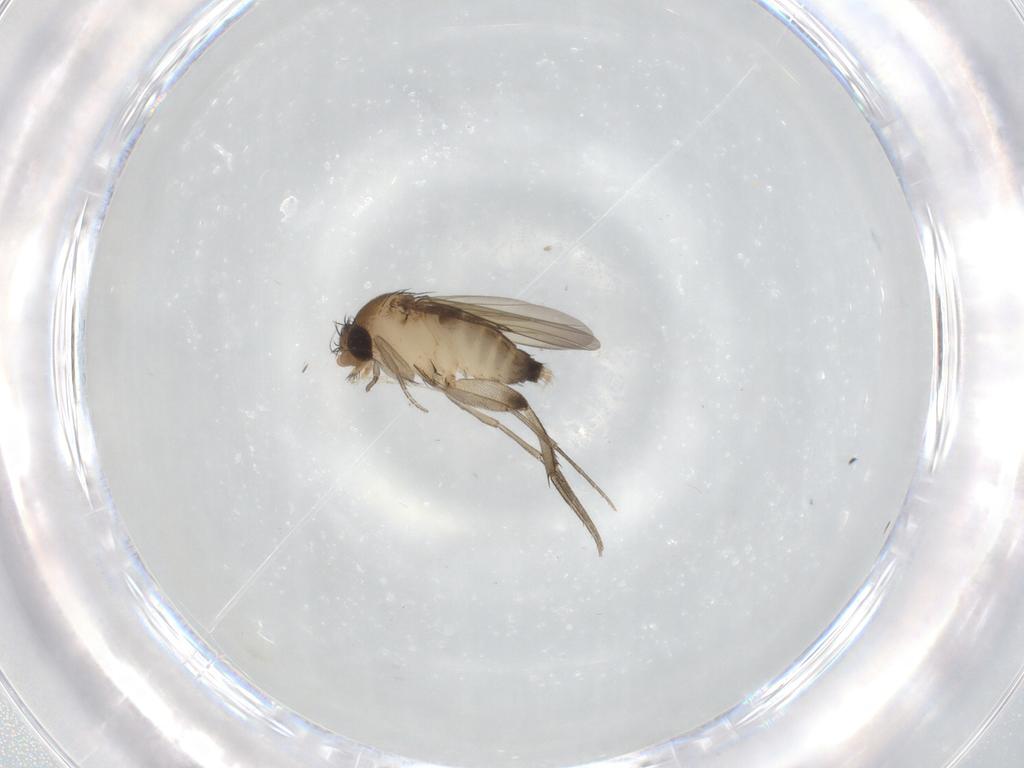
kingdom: Animalia
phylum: Arthropoda
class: Insecta
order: Diptera
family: Phoridae
